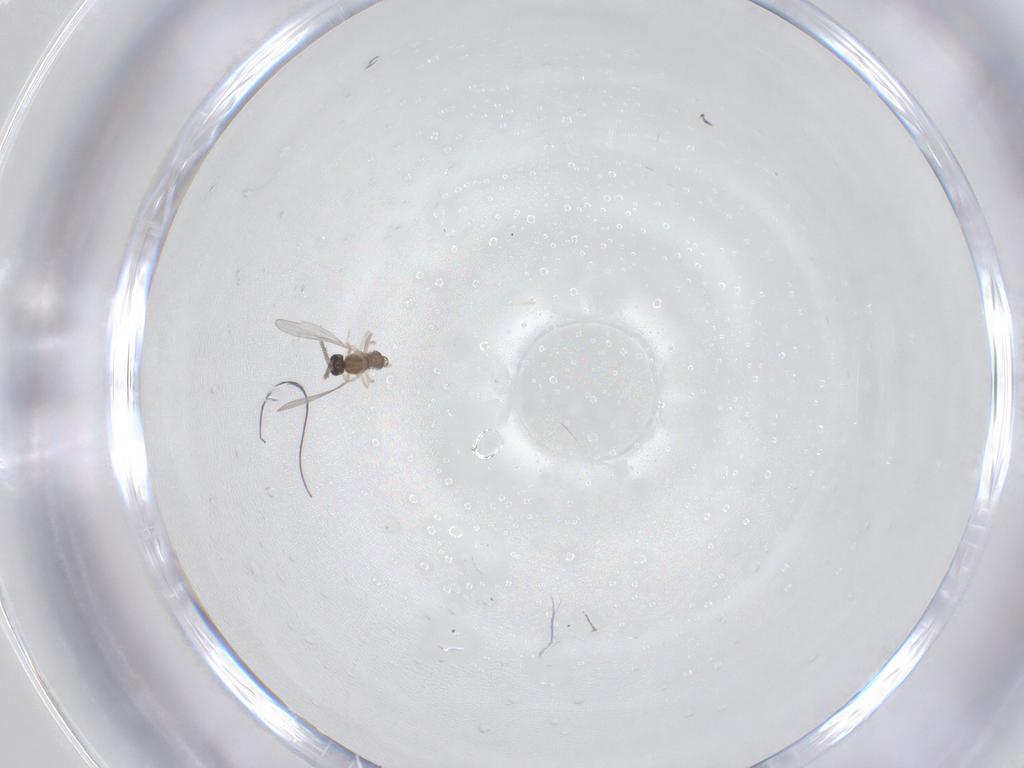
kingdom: Animalia
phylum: Arthropoda
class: Insecta
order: Diptera
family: Cecidomyiidae
